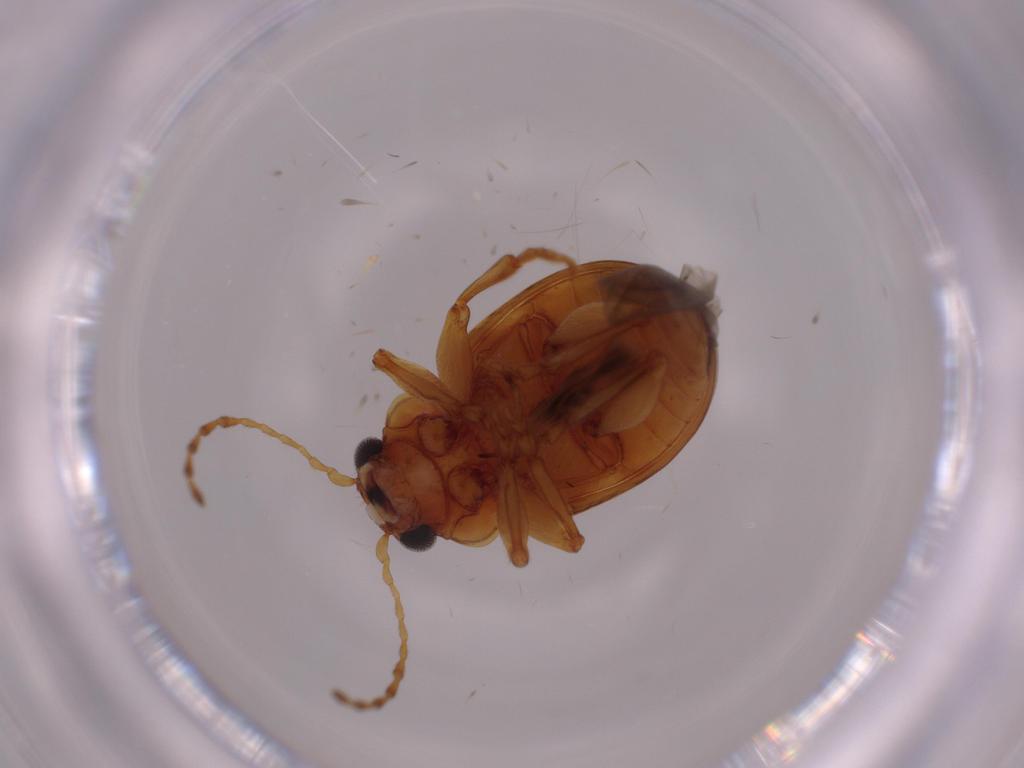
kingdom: Animalia
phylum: Arthropoda
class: Insecta
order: Coleoptera
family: Chrysomelidae
